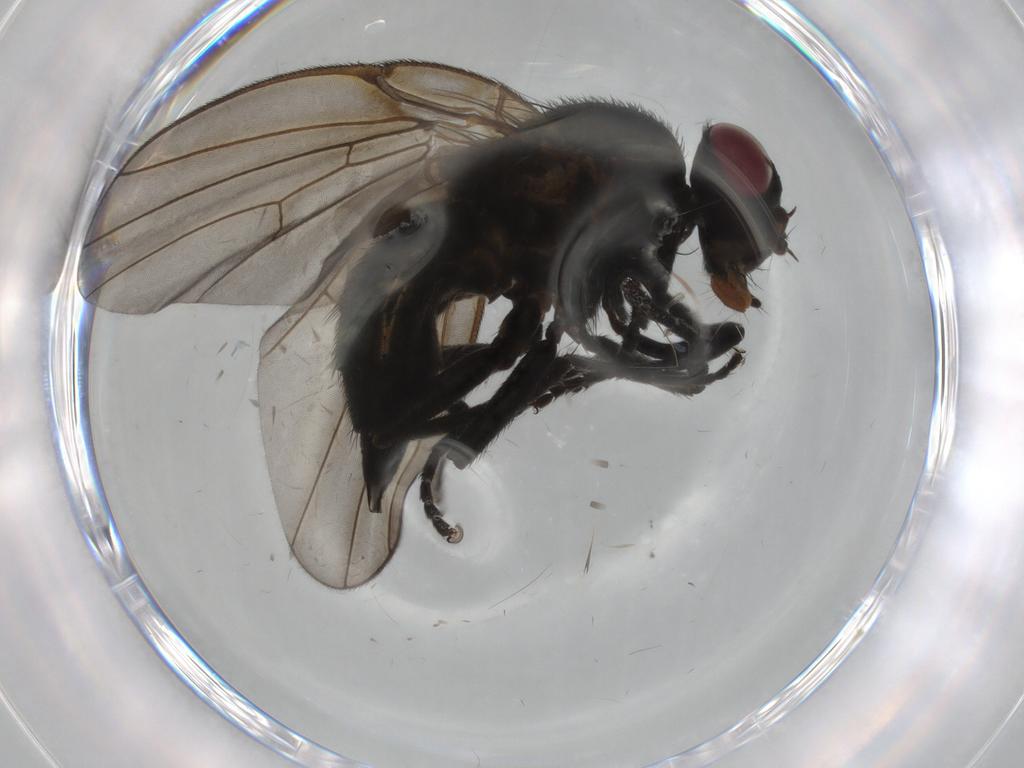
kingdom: Animalia
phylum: Arthropoda
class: Insecta
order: Diptera
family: Agromyzidae
